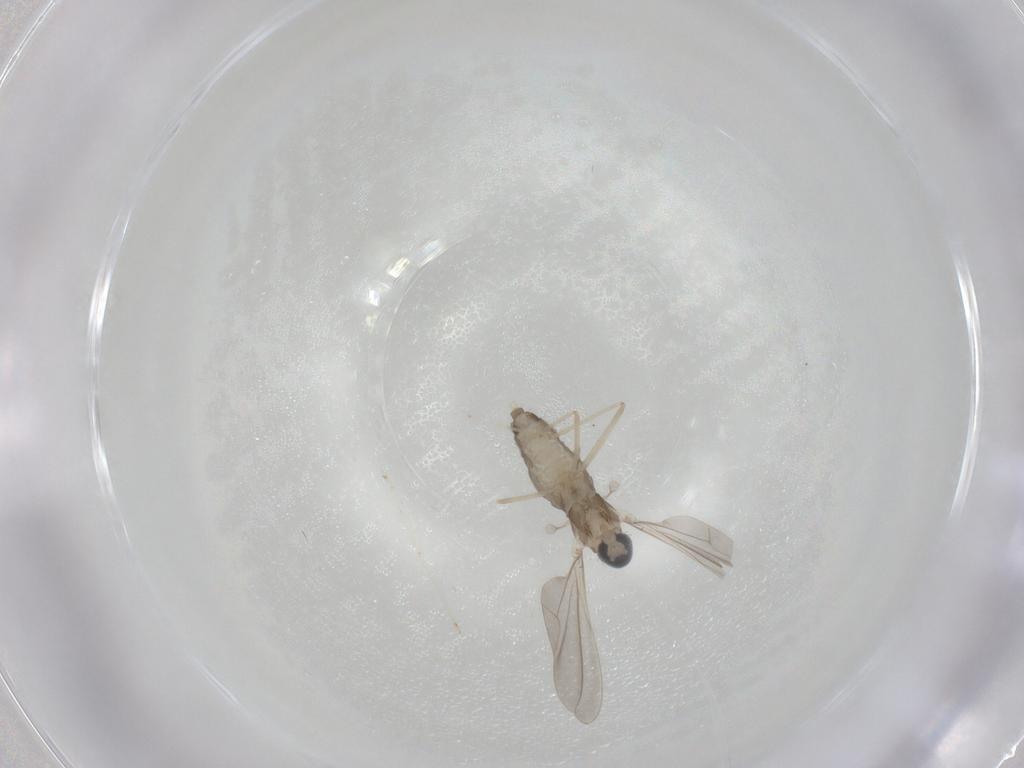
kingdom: Animalia
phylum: Arthropoda
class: Insecta
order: Diptera
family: Cecidomyiidae
